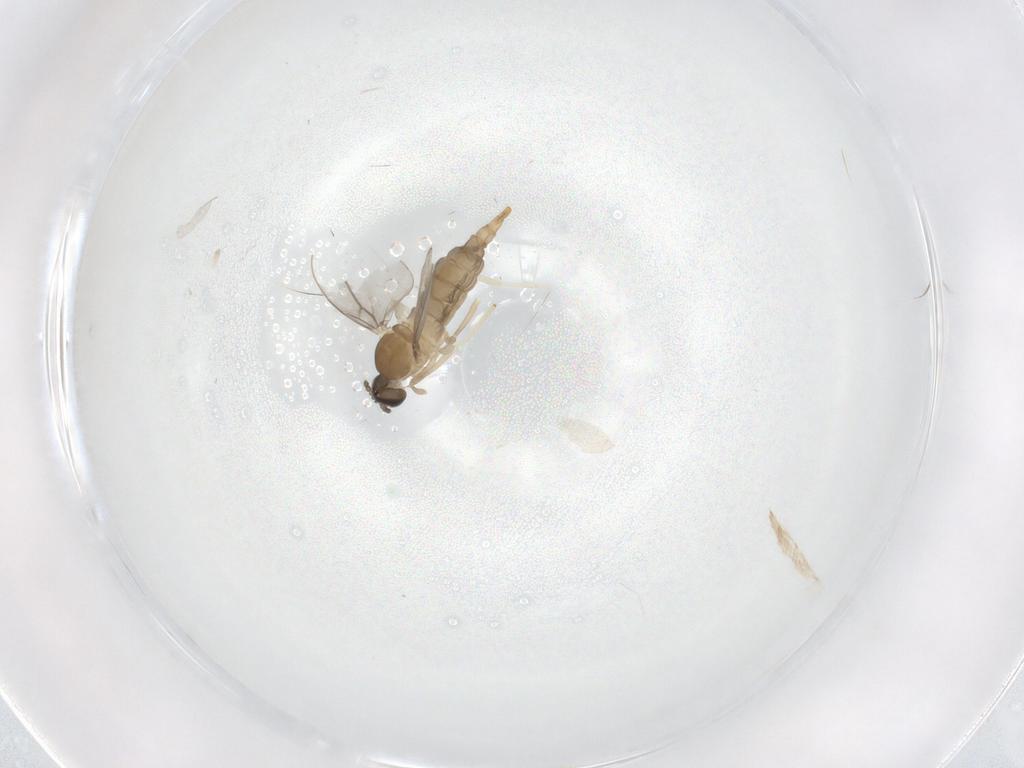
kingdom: Animalia
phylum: Arthropoda
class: Insecta
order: Diptera
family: Cecidomyiidae
